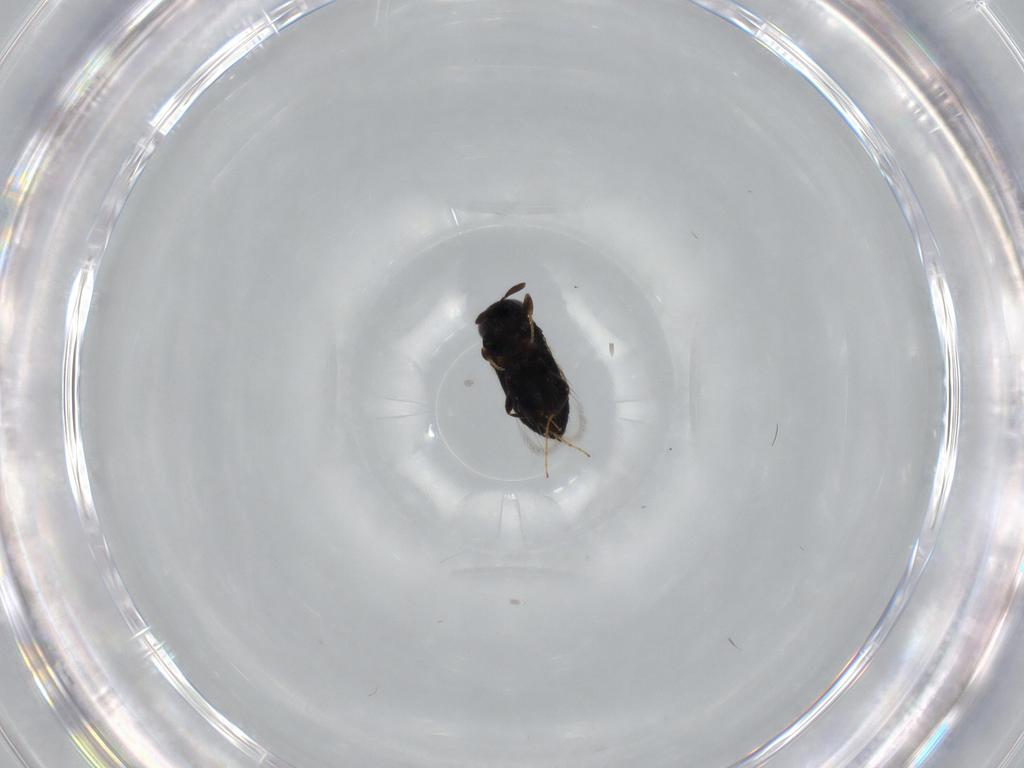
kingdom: Animalia
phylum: Arthropoda
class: Insecta
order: Hymenoptera
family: Signiphoridae
